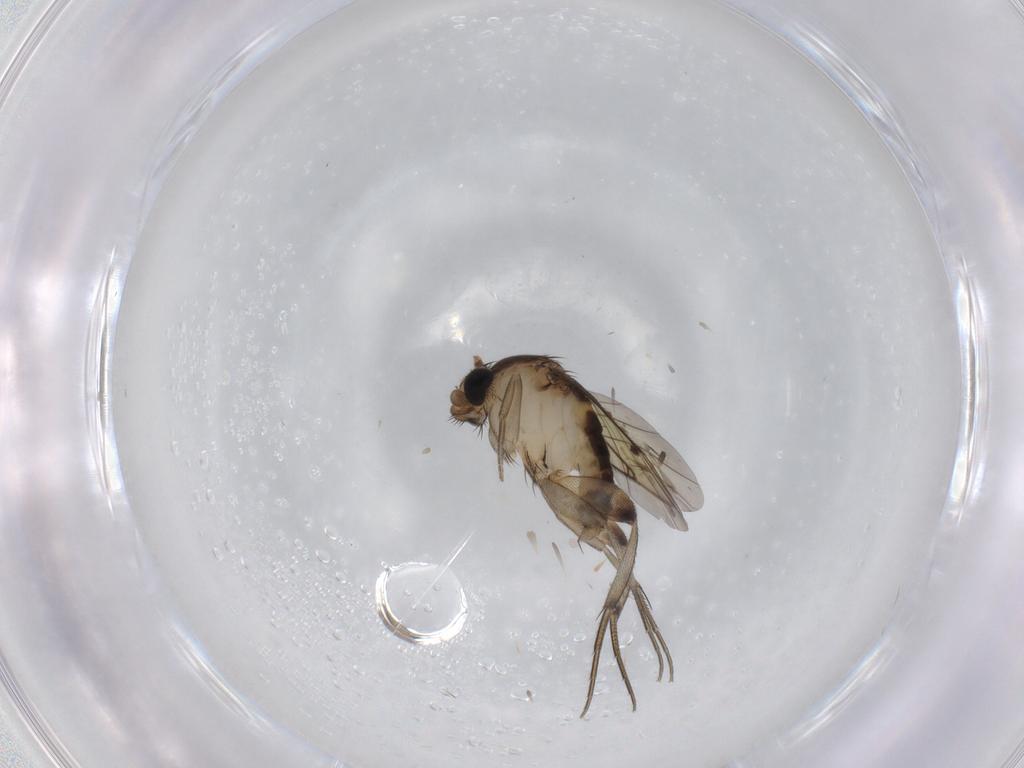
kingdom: Animalia
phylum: Arthropoda
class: Insecta
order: Diptera
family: Phoridae
